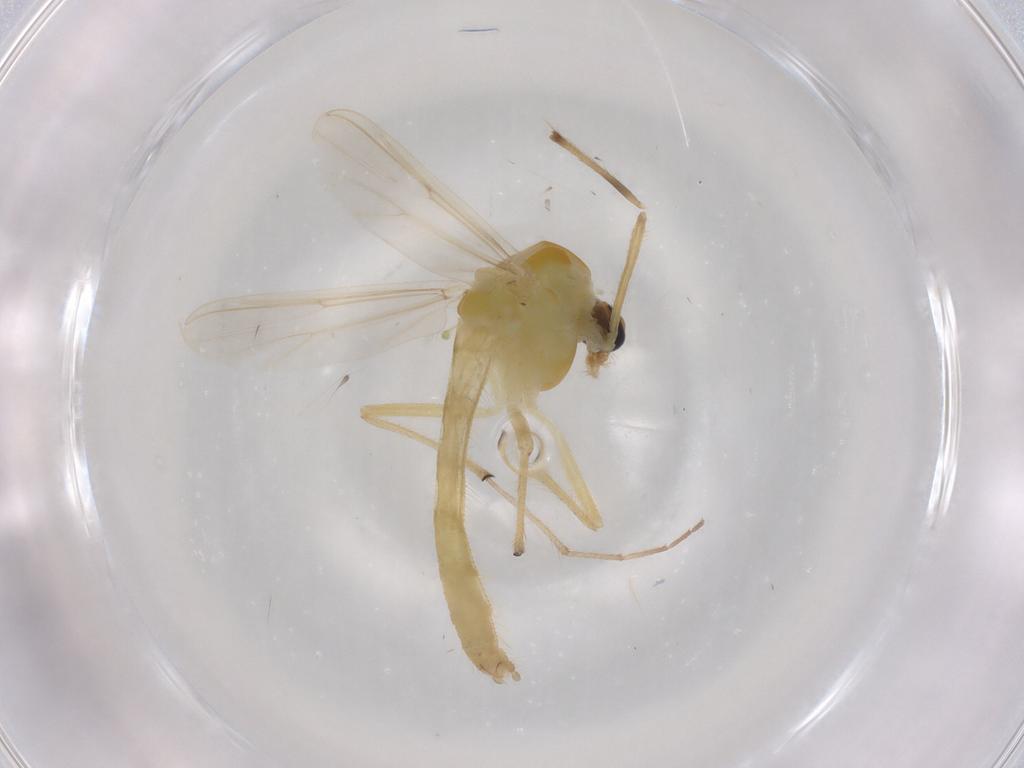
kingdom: Animalia
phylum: Arthropoda
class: Insecta
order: Diptera
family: Psychodidae
